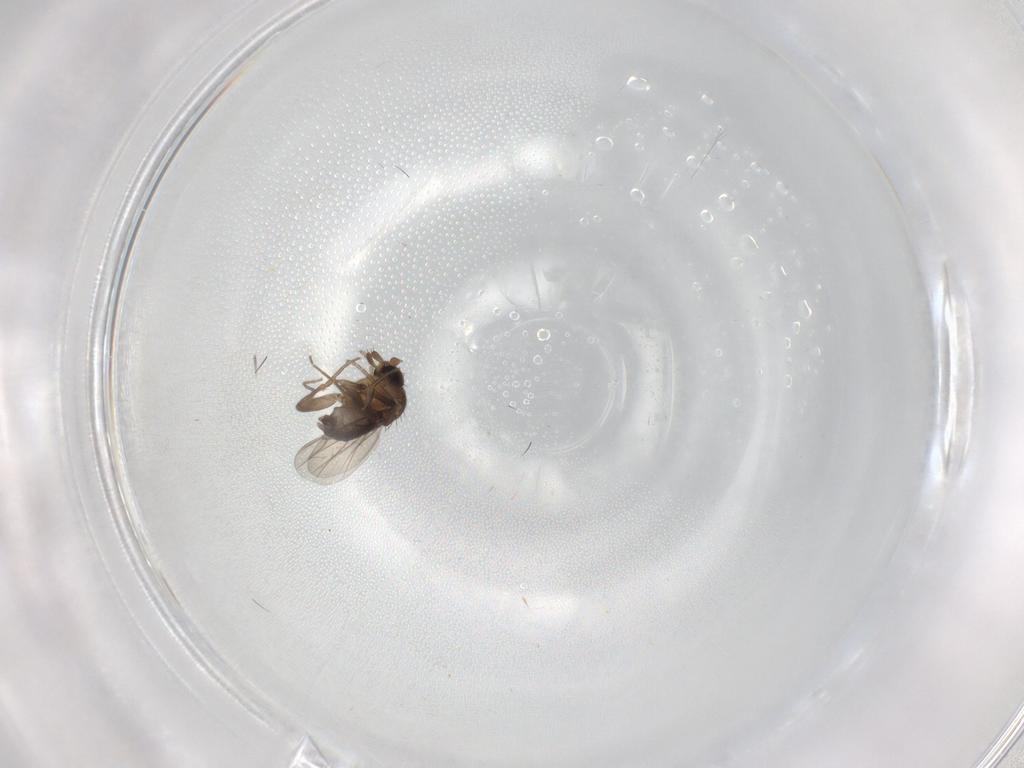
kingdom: Animalia
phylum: Arthropoda
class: Insecta
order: Diptera
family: Phoridae
